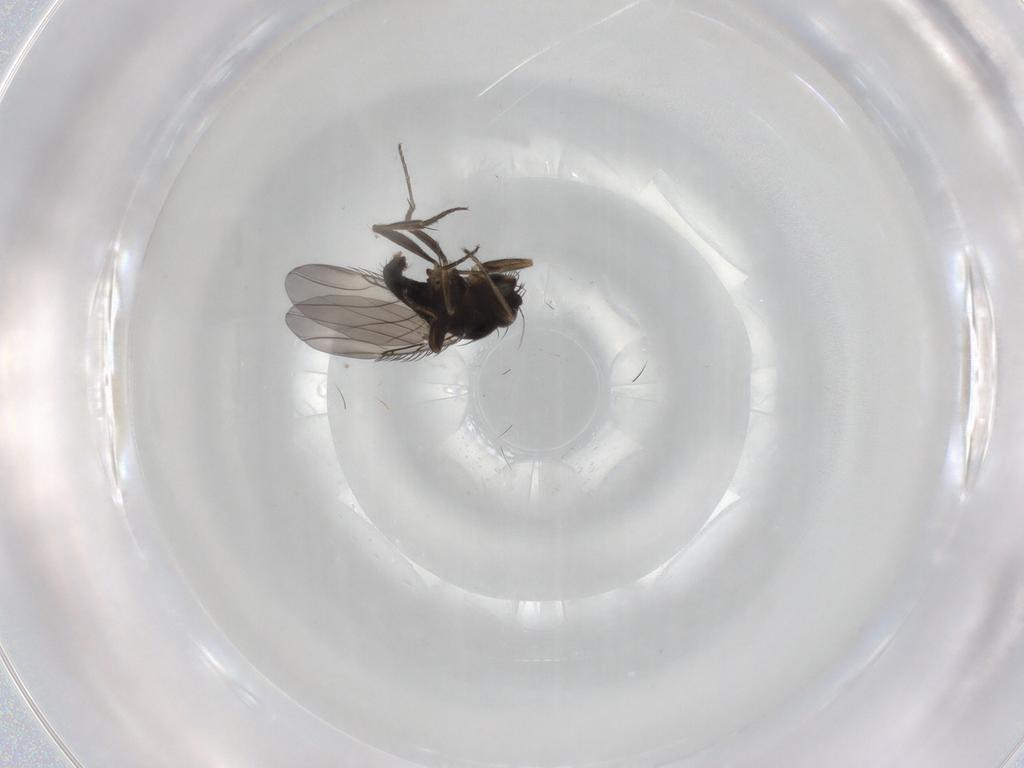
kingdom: Animalia
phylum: Arthropoda
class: Insecta
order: Diptera
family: Phoridae
